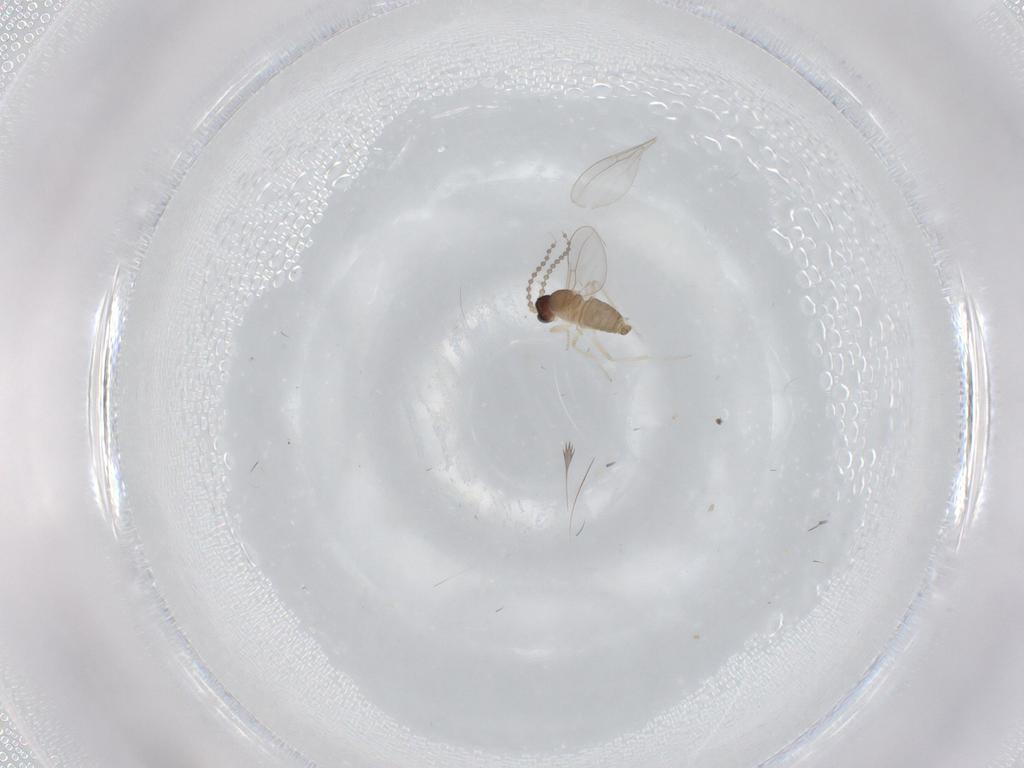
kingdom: Animalia
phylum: Arthropoda
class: Insecta
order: Diptera
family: Cecidomyiidae
